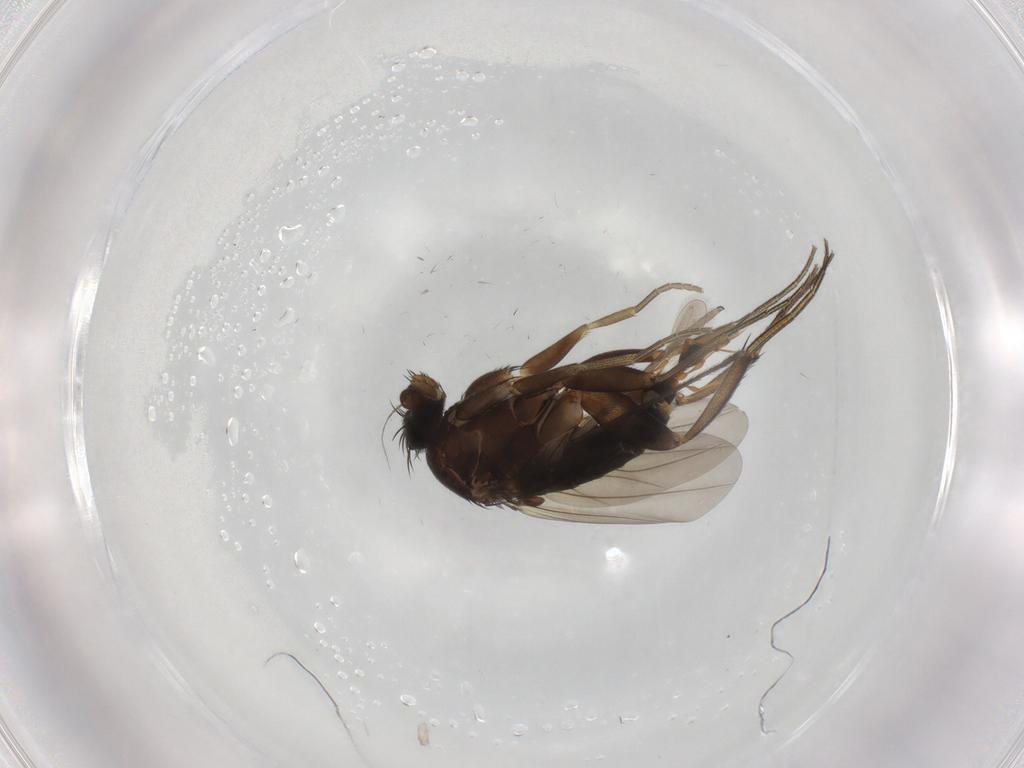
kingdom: Animalia
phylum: Arthropoda
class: Insecta
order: Diptera
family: Phoridae
